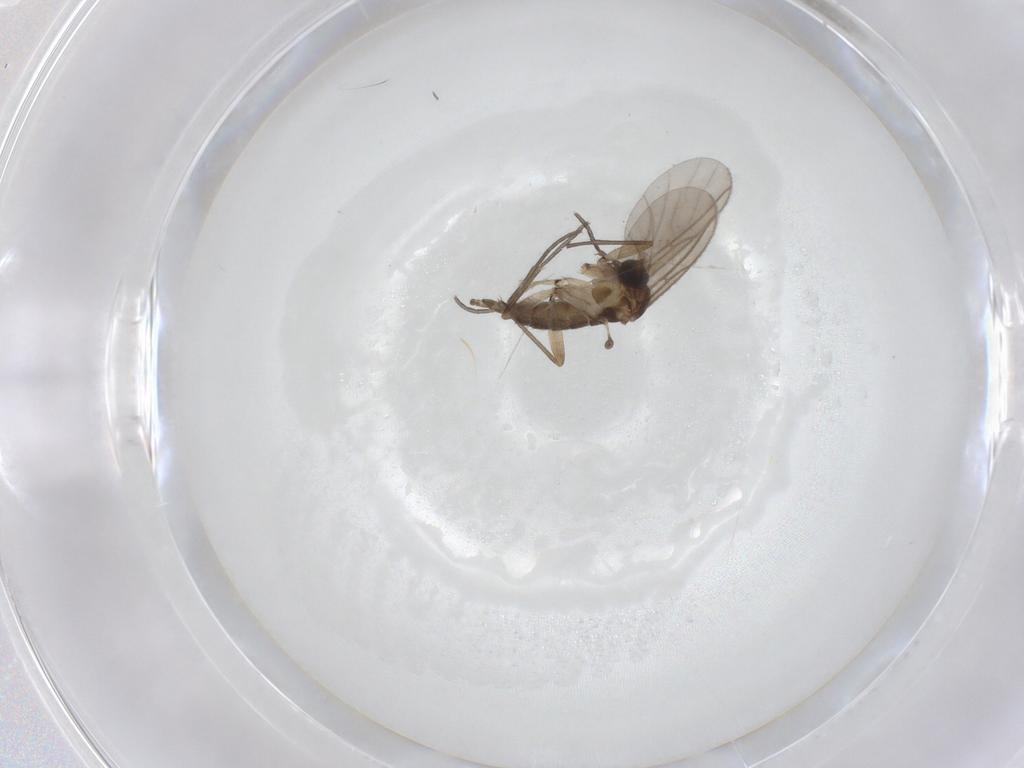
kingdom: Animalia
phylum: Arthropoda
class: Insecta
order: Diptera
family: Sciaridae
